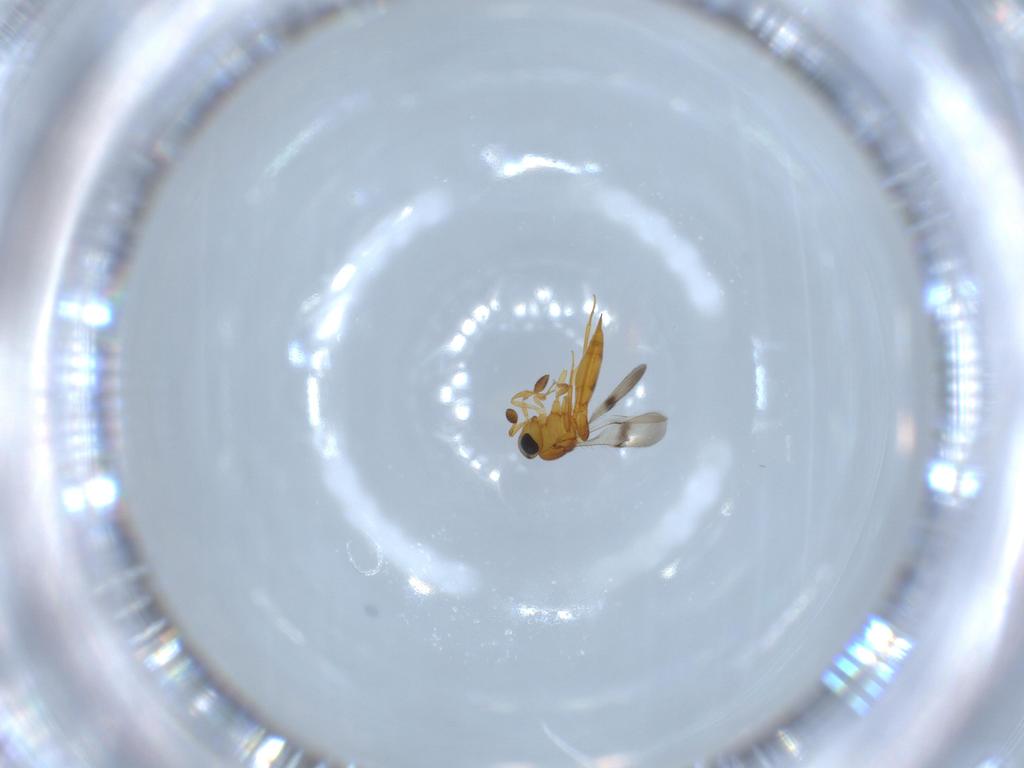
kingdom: Animalia
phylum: Arthropoda
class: Insecta
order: Hymenoptera
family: Scelionidae
